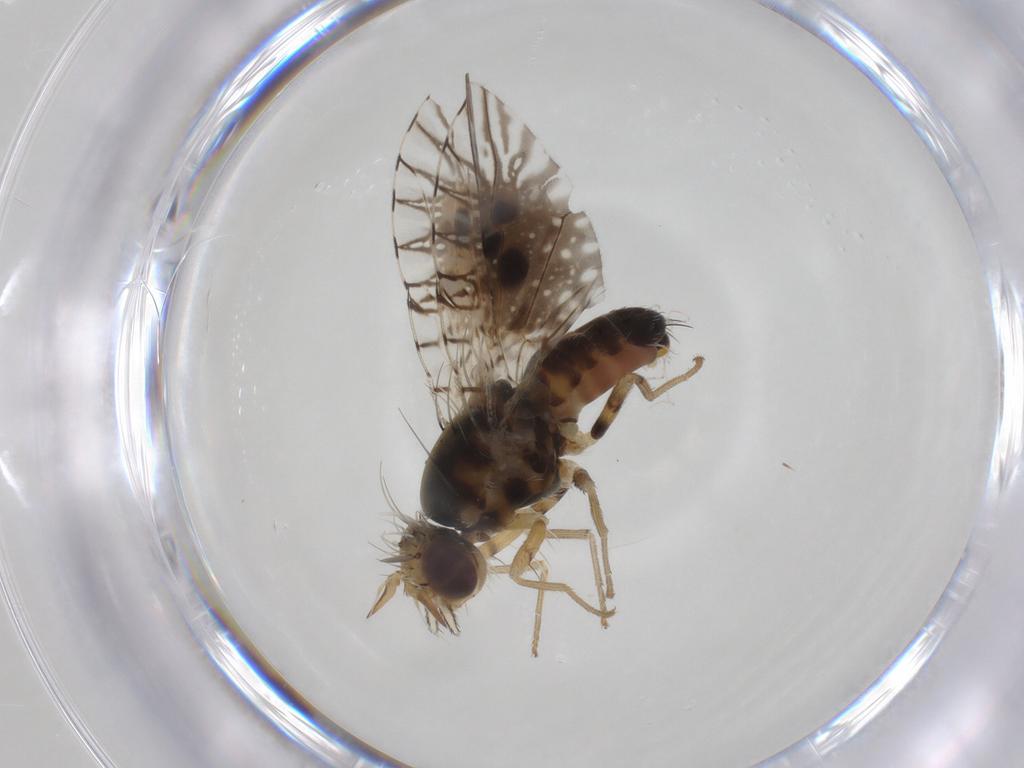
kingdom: Animalia
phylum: Arthropoda
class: Insecta
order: Diptera
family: Tephritidae
